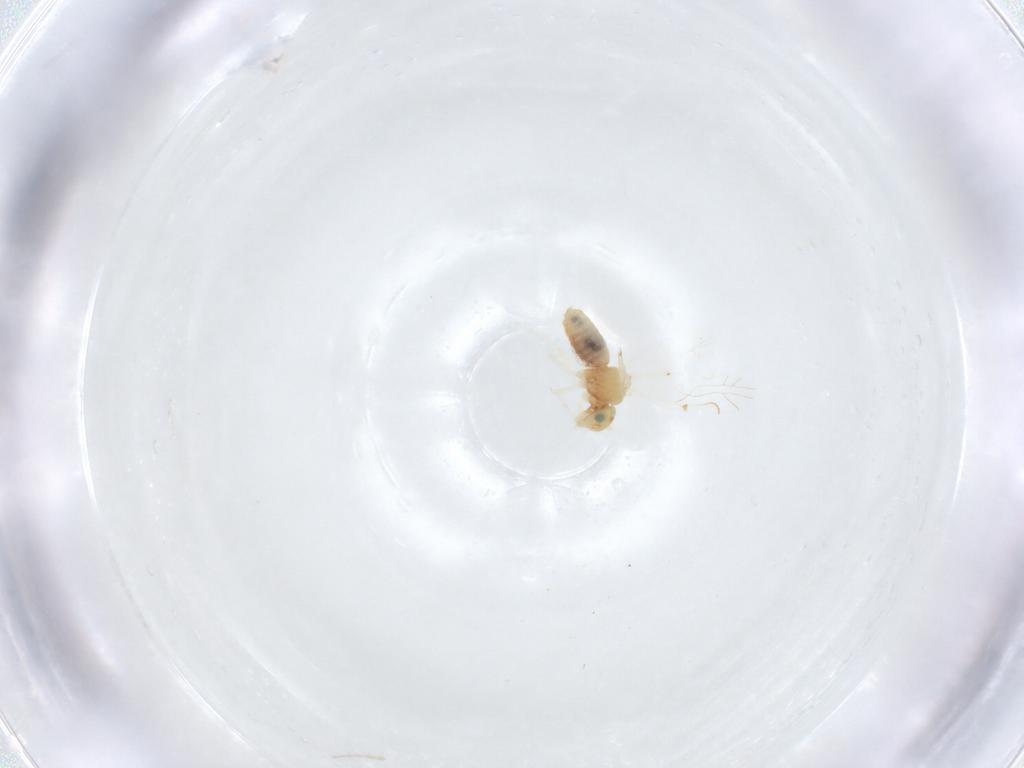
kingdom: Animalia
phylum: Arthropoda
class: Insecta
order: Psocodea
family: Lachesillidae
